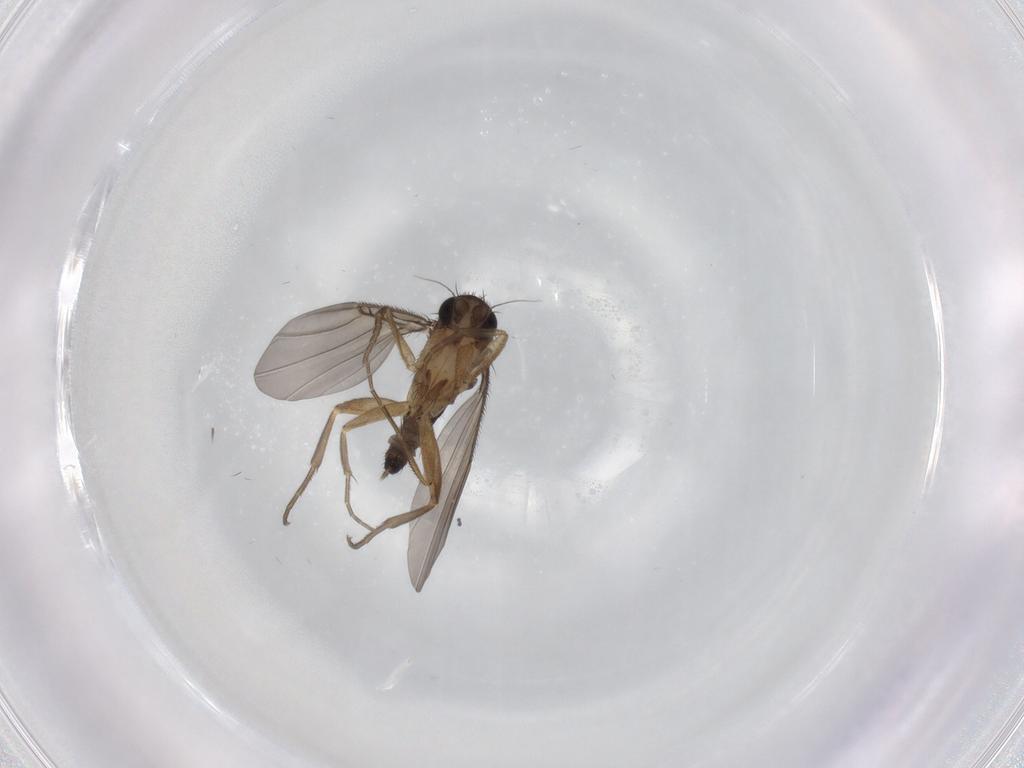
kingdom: Animalia
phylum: Arthropoda
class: Insecta
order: Diptera
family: Phoridae
